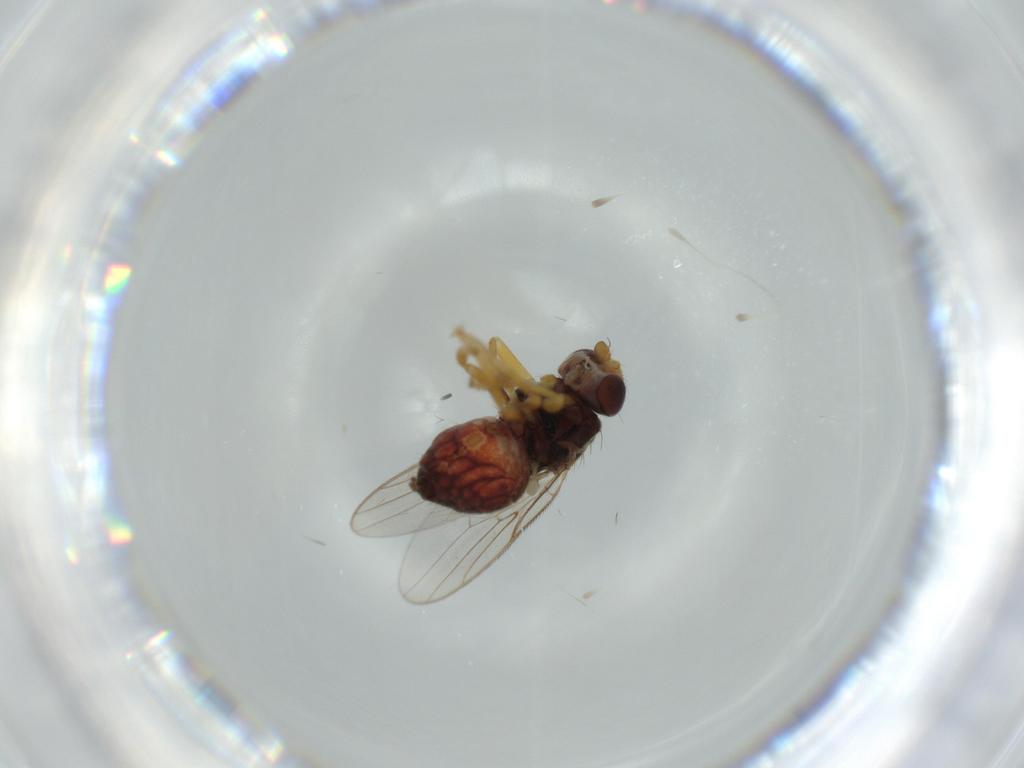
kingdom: Animalia
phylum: Arthropoda
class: Insecta
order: Diptera
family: Chloropidae
